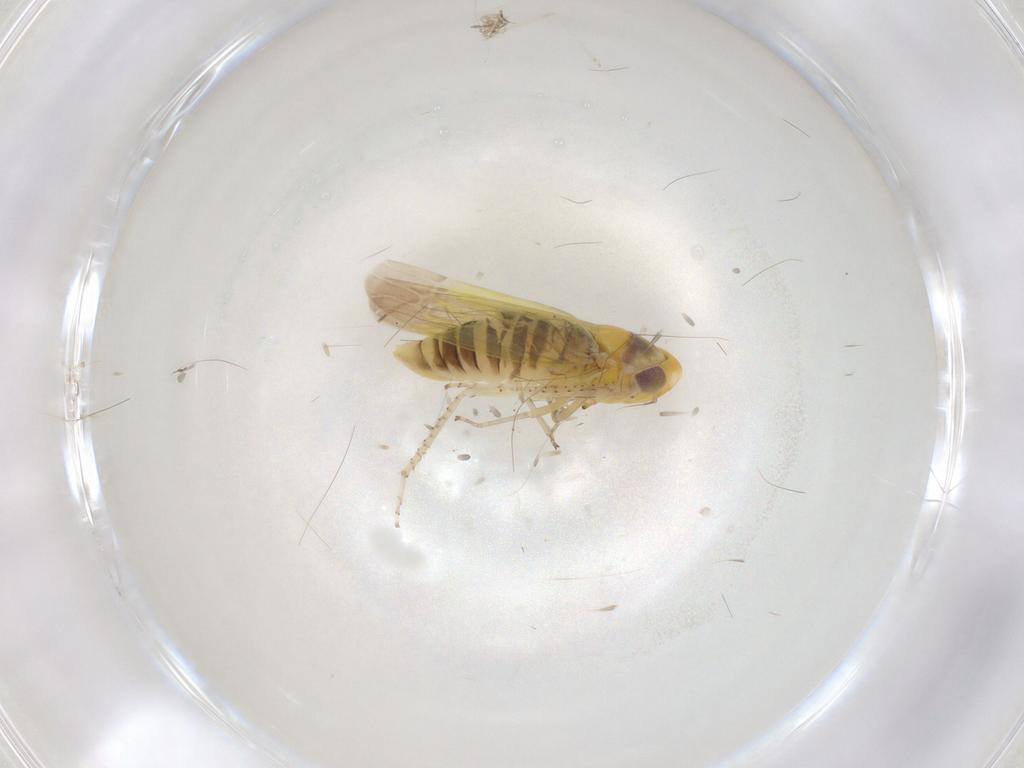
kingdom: Animalia
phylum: Arthropoda
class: Insecta
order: Hemiptera
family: Cicadellidae
